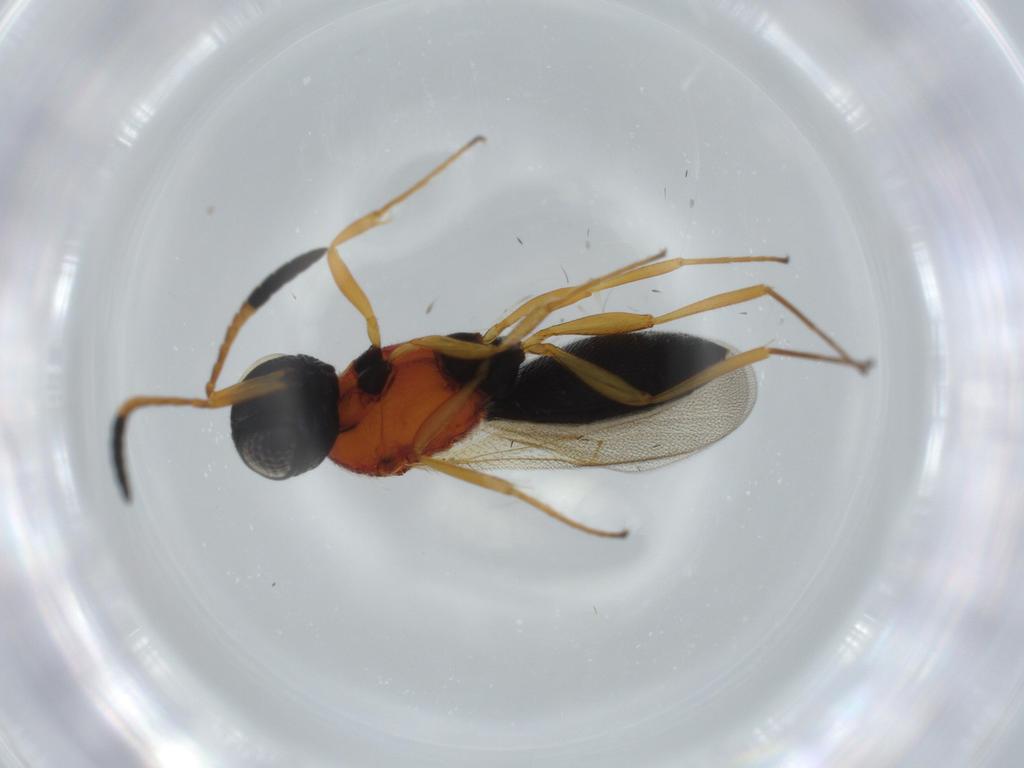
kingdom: Animalia
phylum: Arthropoda
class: Insecta
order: Hymenoptera
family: Scelionidae
